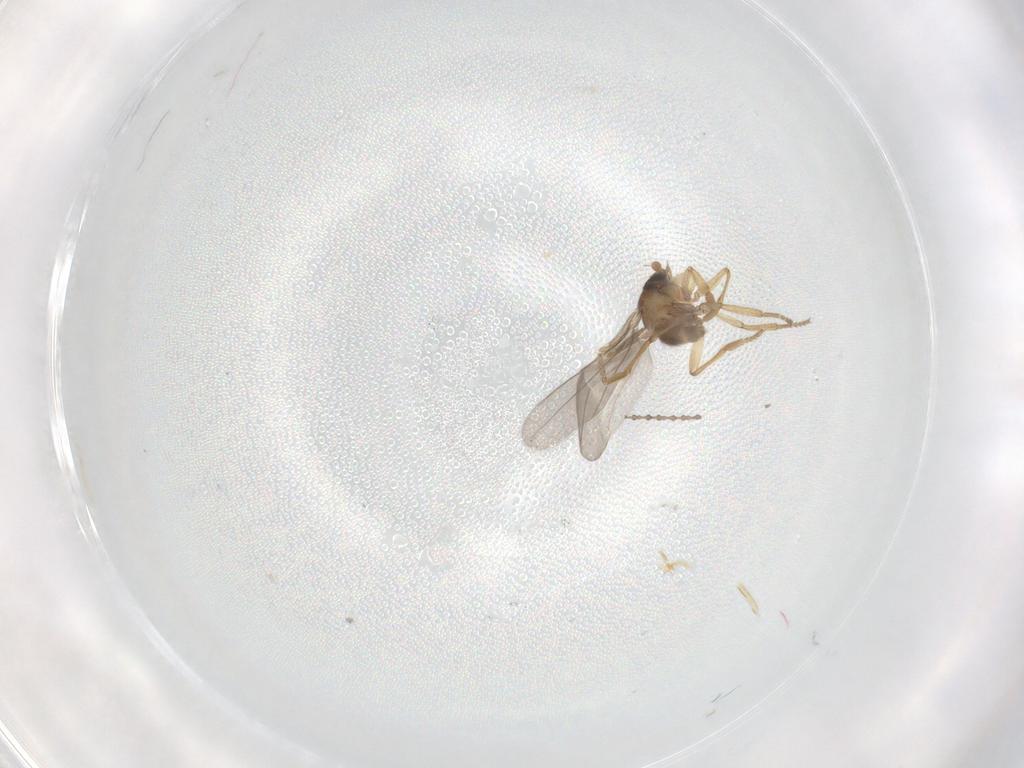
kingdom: Animalia
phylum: Arthropoda
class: Insecta
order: Diptera
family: Phoridae
